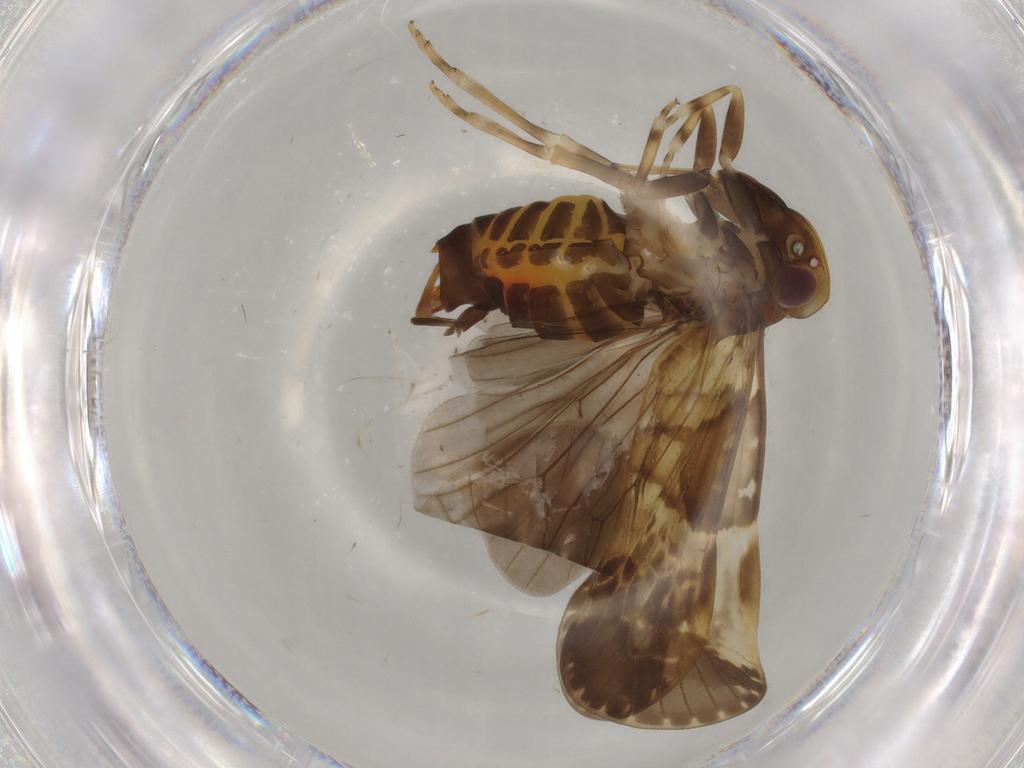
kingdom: Animalia
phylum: Arthropoda
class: Insecta
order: Hemiptera
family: Cixiidae
